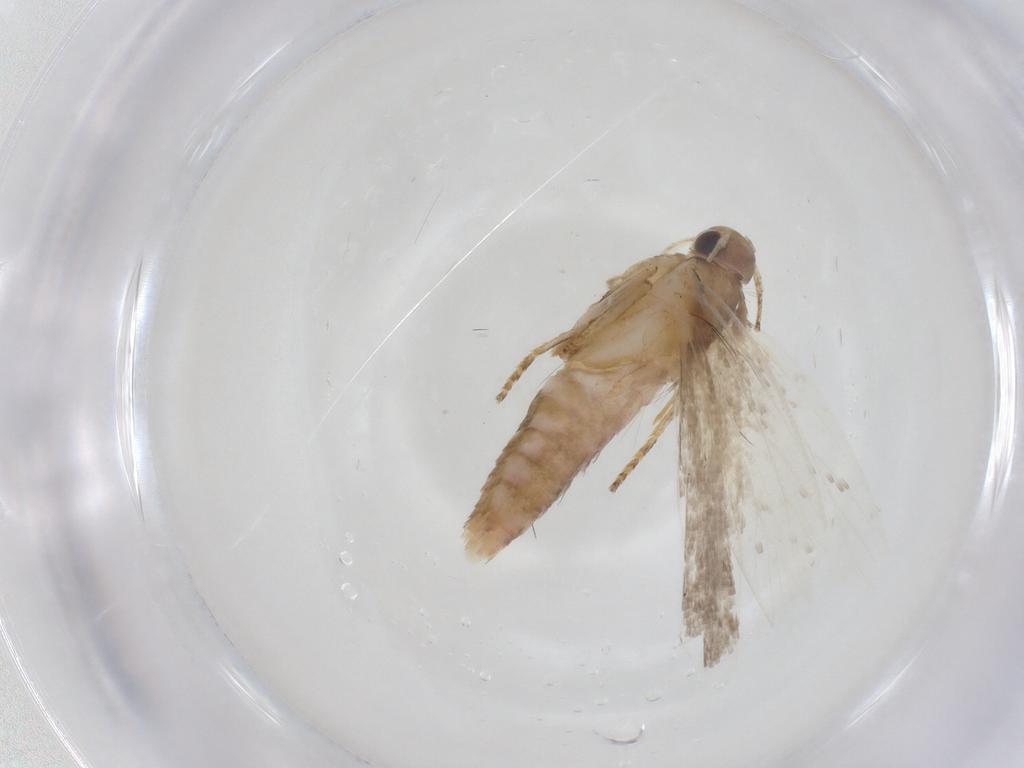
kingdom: Animalia
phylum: Arthropoda
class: Insecta
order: Lepidoptera
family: Gelechiidae
